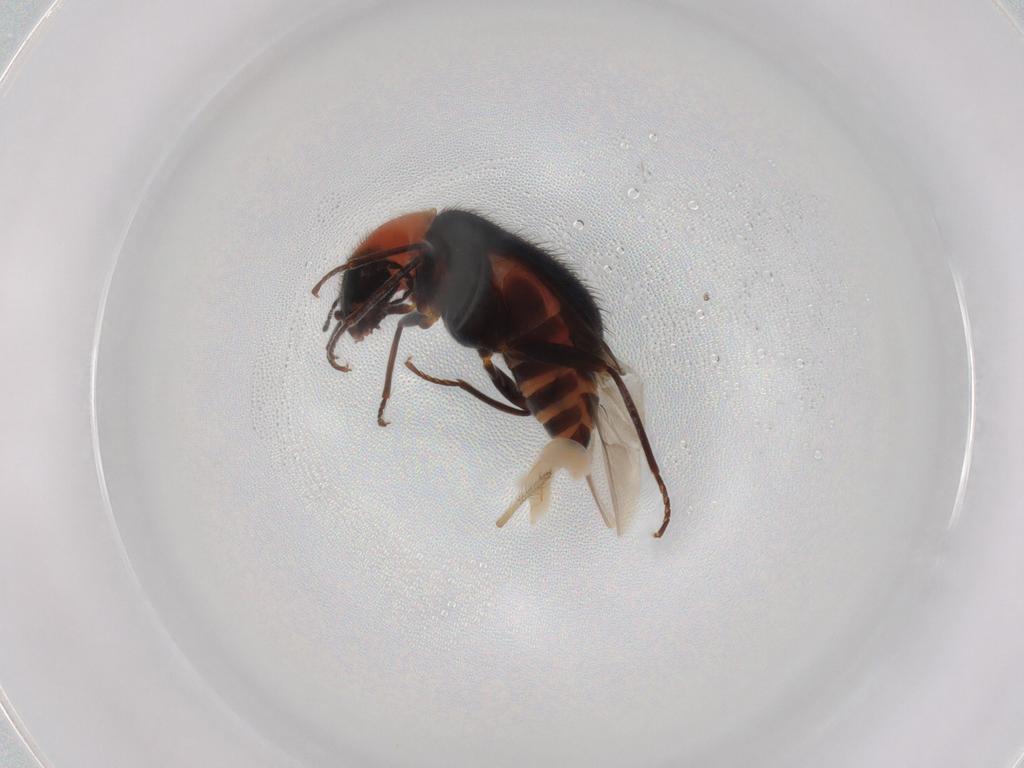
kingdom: Animalia
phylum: Arthropoda
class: Insecta
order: Coleoptera
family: Melyridae
